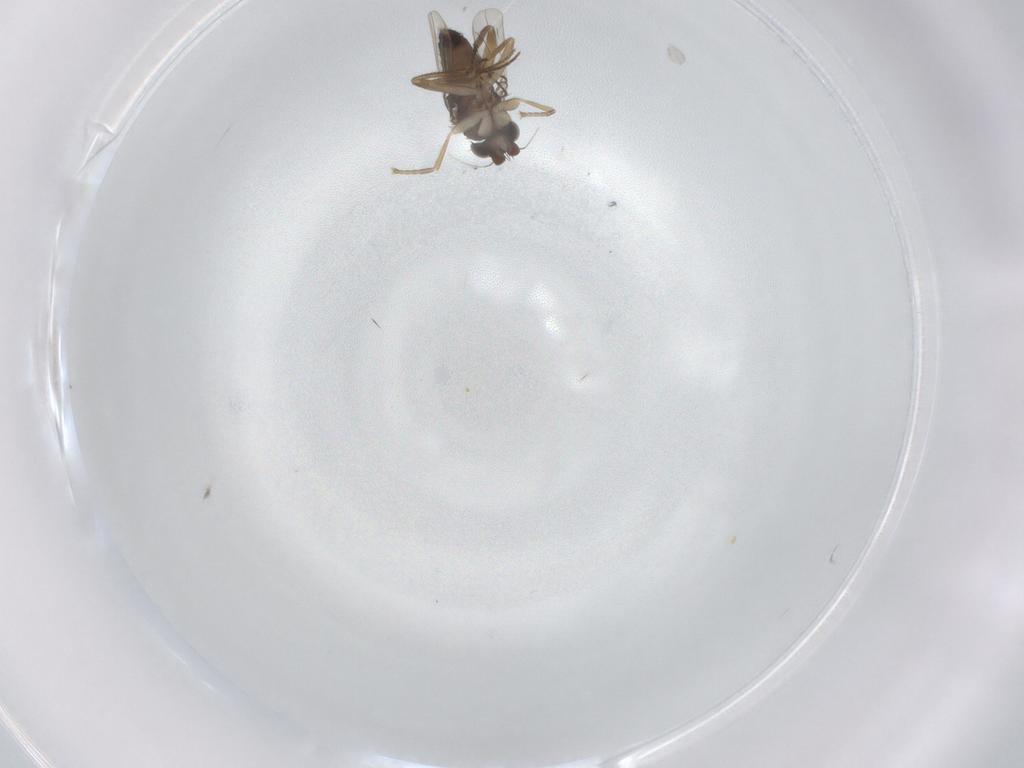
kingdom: Animalia
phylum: Arthropoda
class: Insecta
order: Diptera
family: Phoridae
